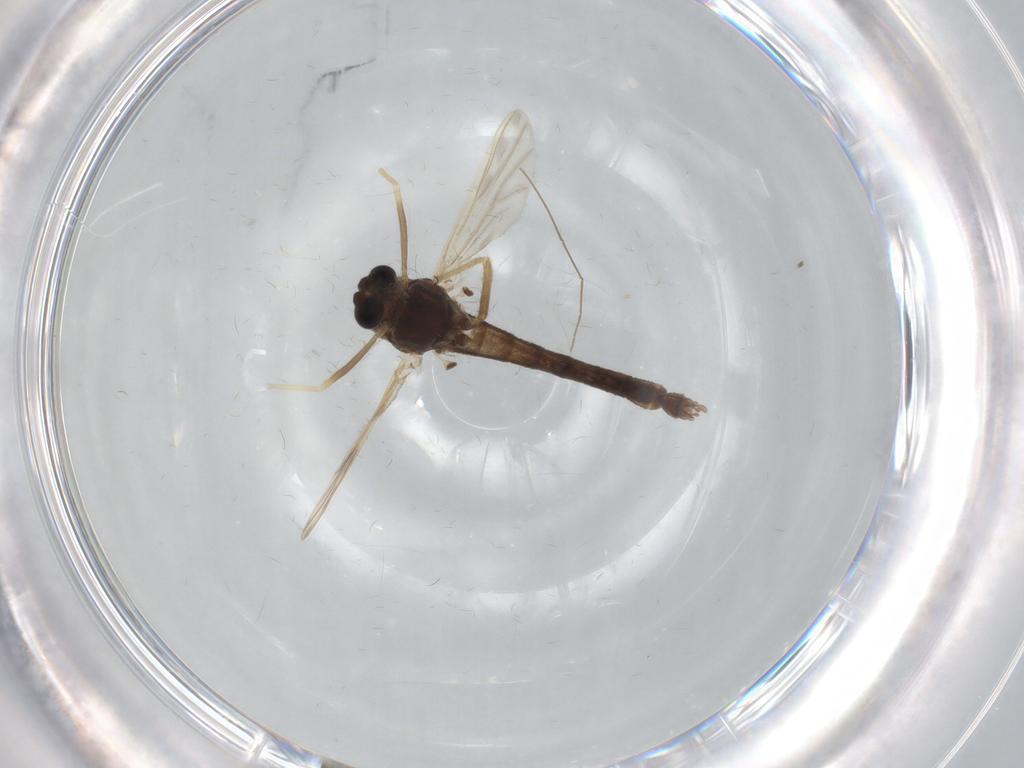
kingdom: Animalia
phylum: Arthropoda
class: Insecta
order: Diptera
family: Chironomidae
